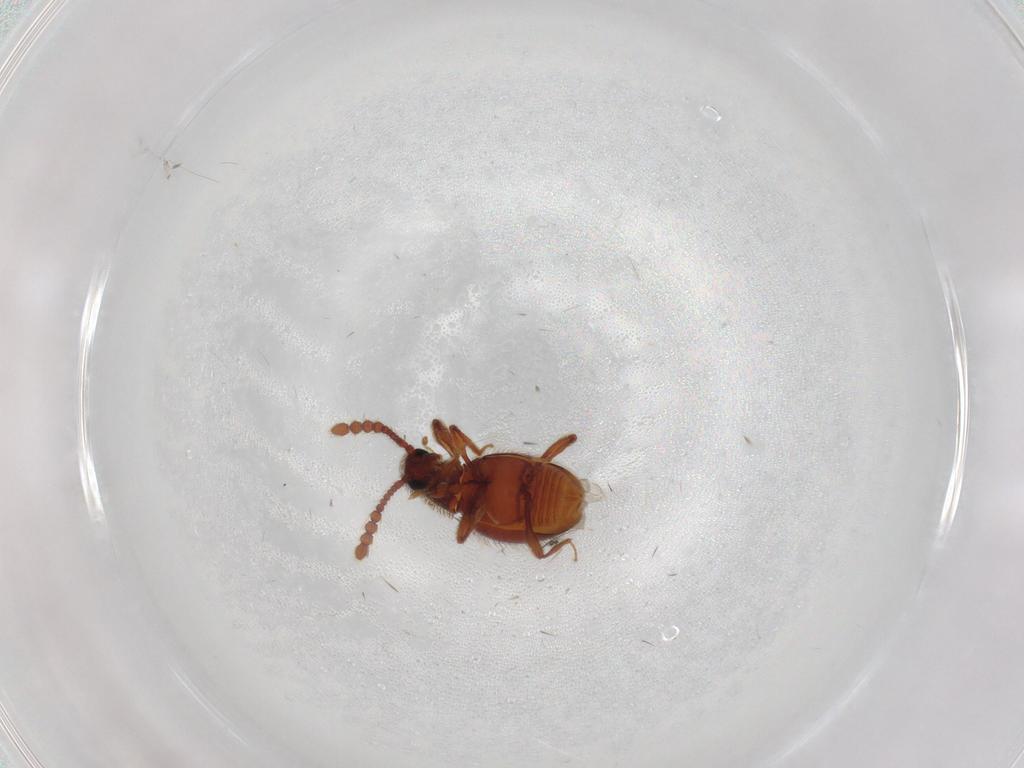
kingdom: Animalia
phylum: Arthropoda
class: Insecta
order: Coleoptera
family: Staphylinidae
